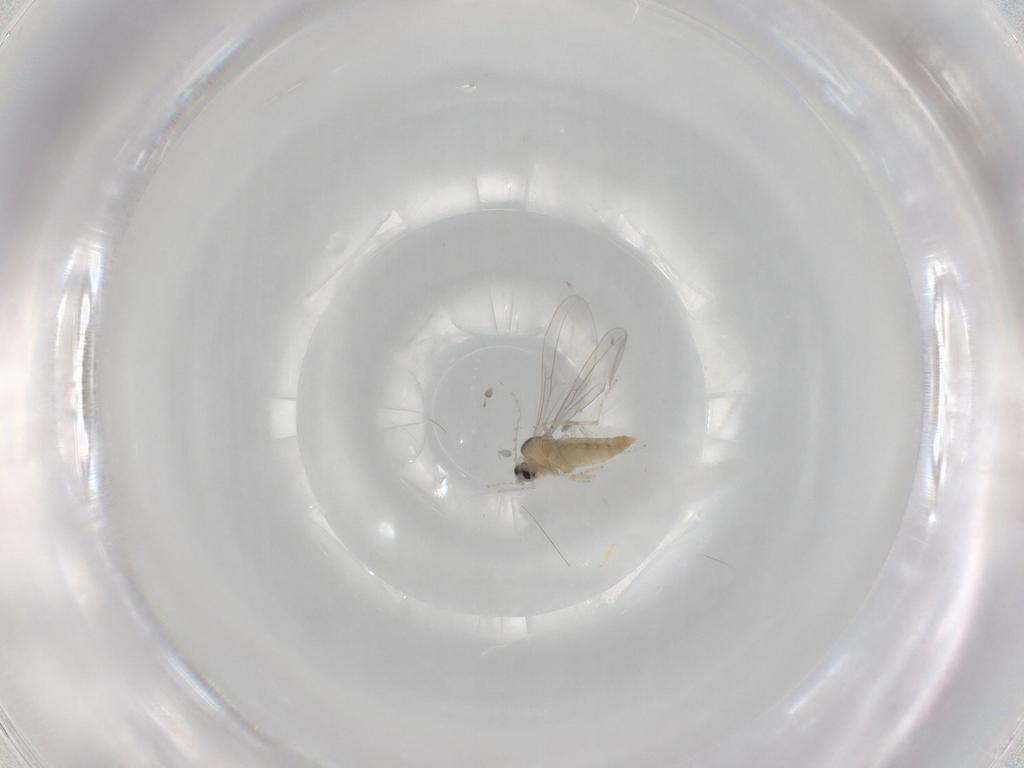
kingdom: Animalia
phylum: Arthropoda
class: Insecta
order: Diptera
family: Cecidomyiidae
